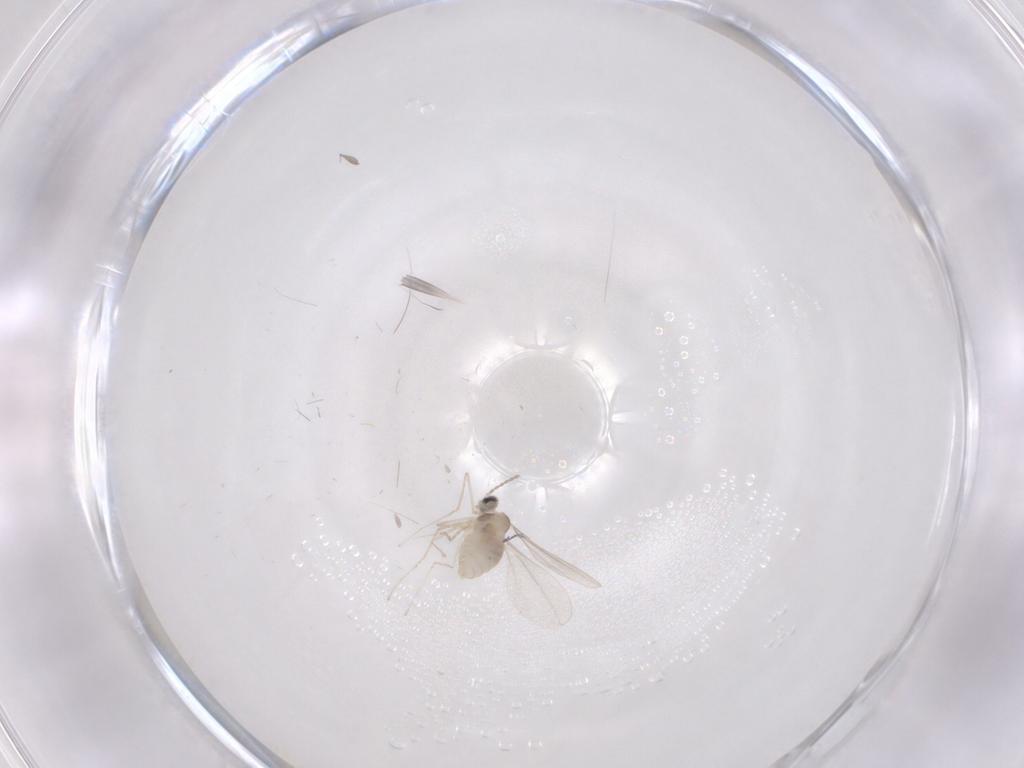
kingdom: Animalia
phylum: Arthropoda
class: Insecta
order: Diptera
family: Cecidomyiidae
